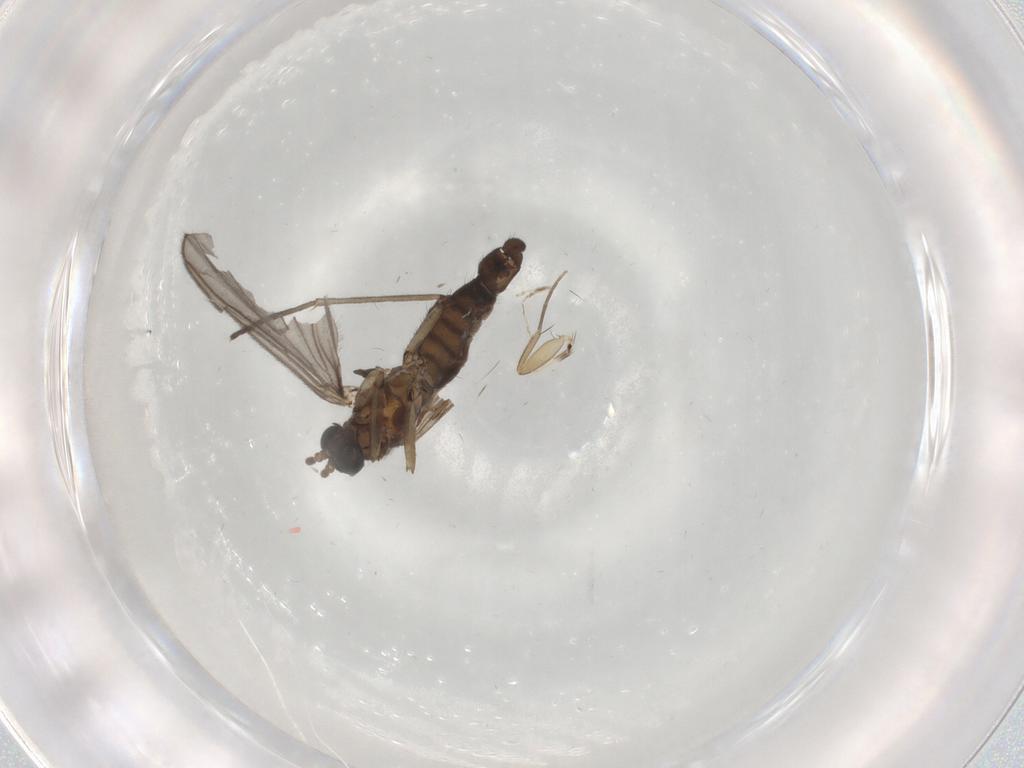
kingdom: Animalia
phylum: Arthropoda
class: Insecta
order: Diptera
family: Sciaridae
